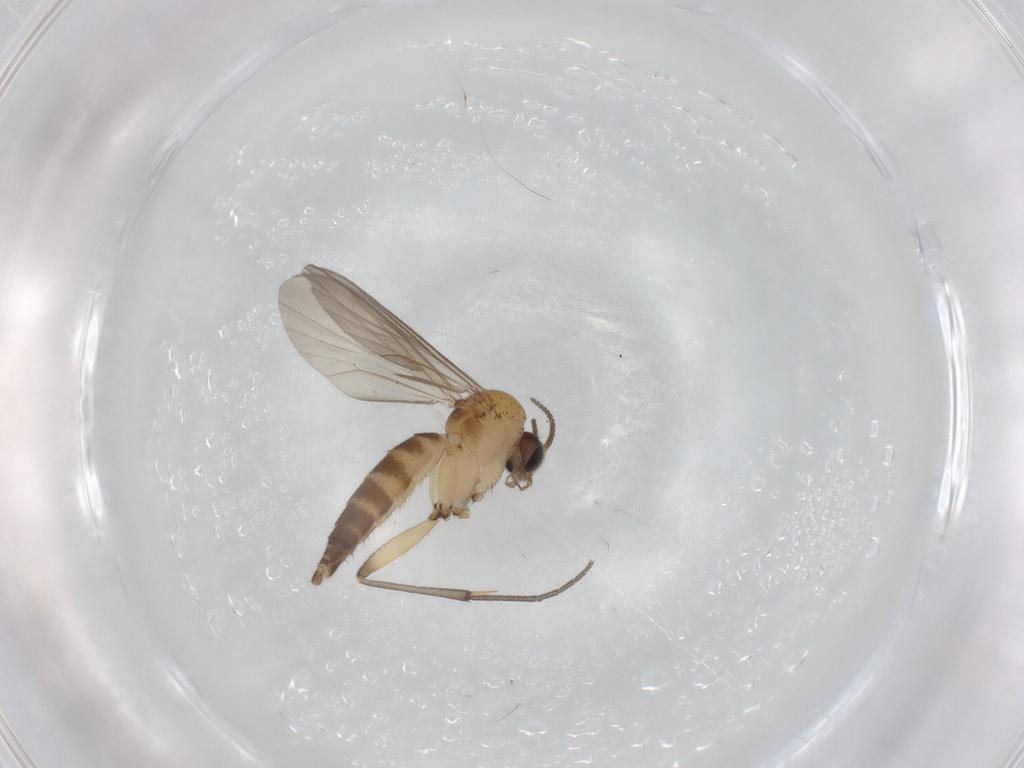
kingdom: Animalia
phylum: Arthropoda
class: Insecta
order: Diptera
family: Mycetophilidae
